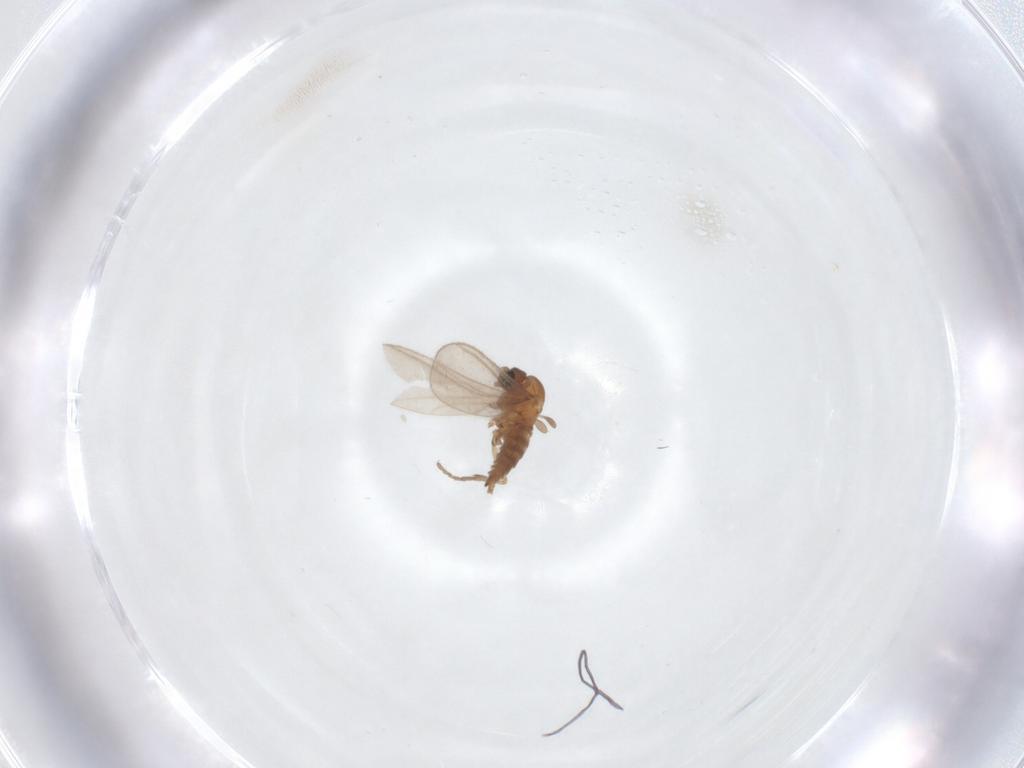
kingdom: Animalia
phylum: Arthropoda
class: Insecta
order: Diptera
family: Sciaridae
